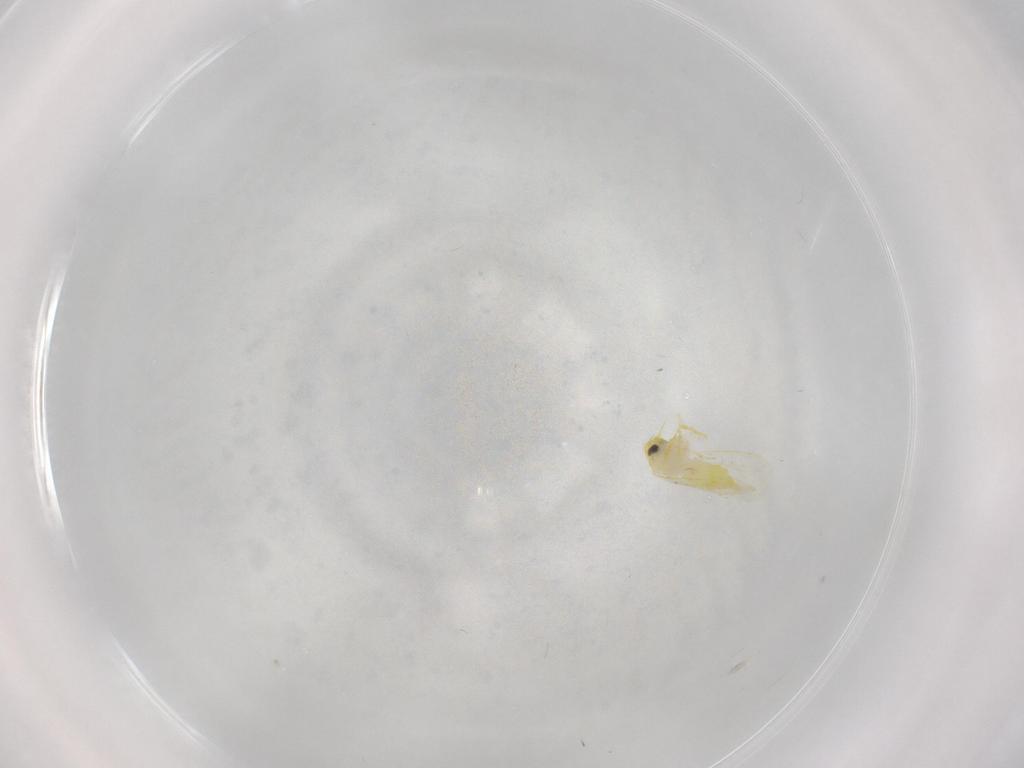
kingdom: Animalia
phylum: Arthropoda
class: Insecta
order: Hemiptera
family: Aleyrodidae
